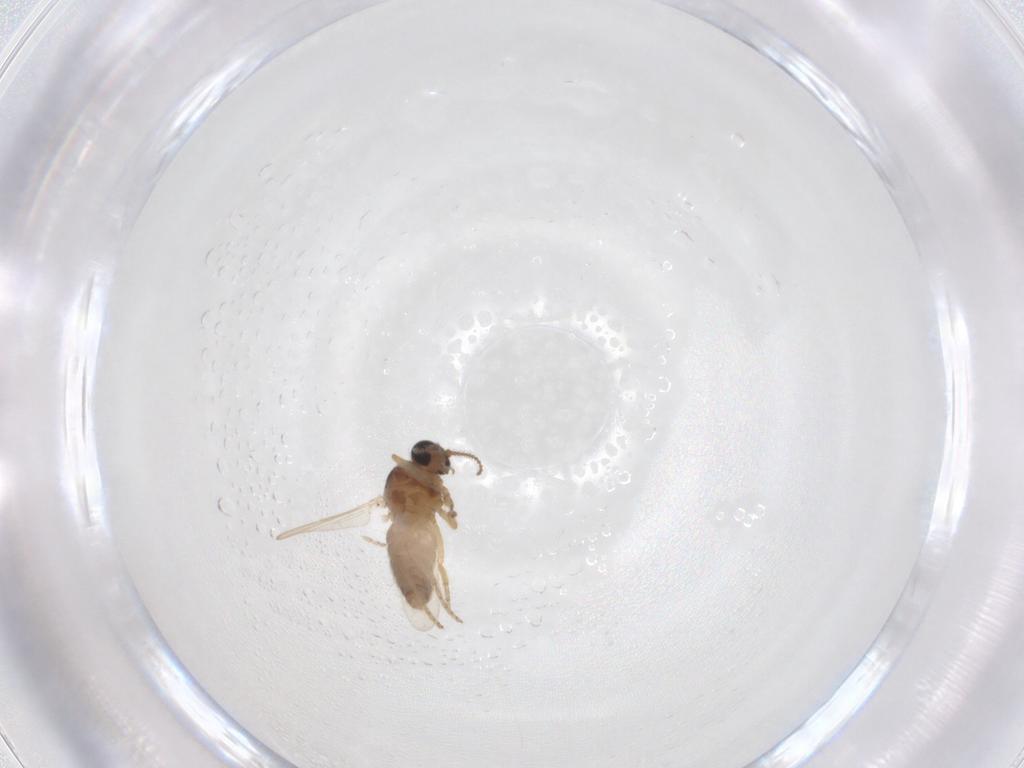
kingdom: Animalia
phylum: Arthropoda
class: Insecta
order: Diptera
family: Ceratopogonidae
